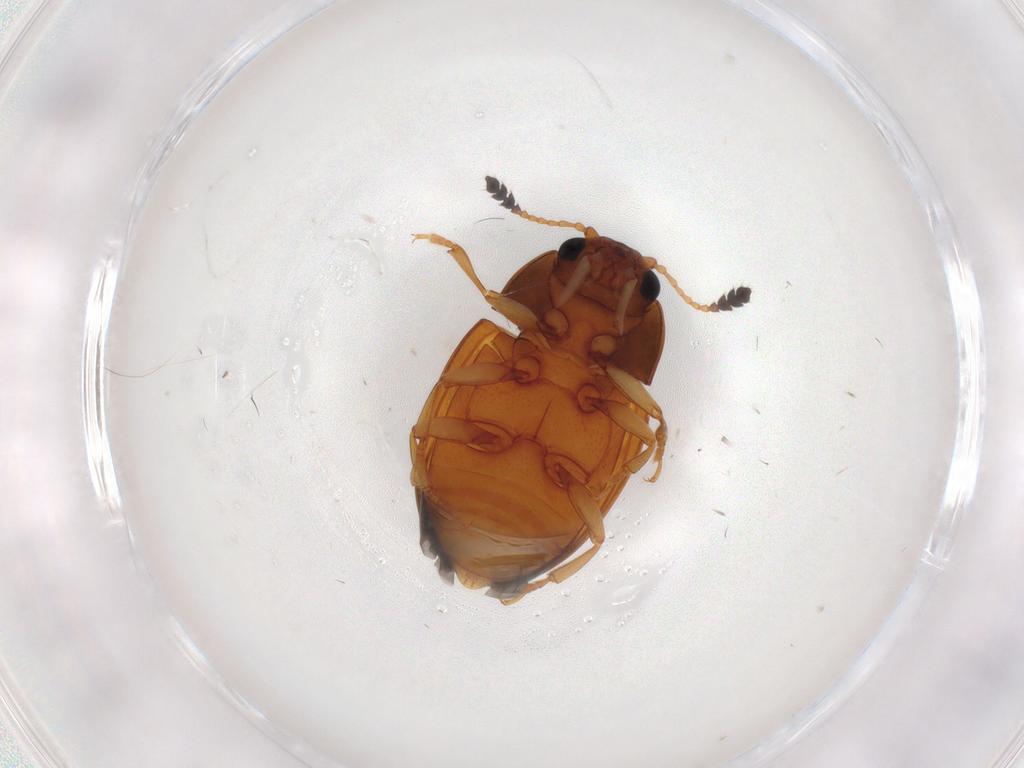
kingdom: Animalia
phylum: Arthropoda
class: Insecta
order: Coleoptera
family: Erotylidae
